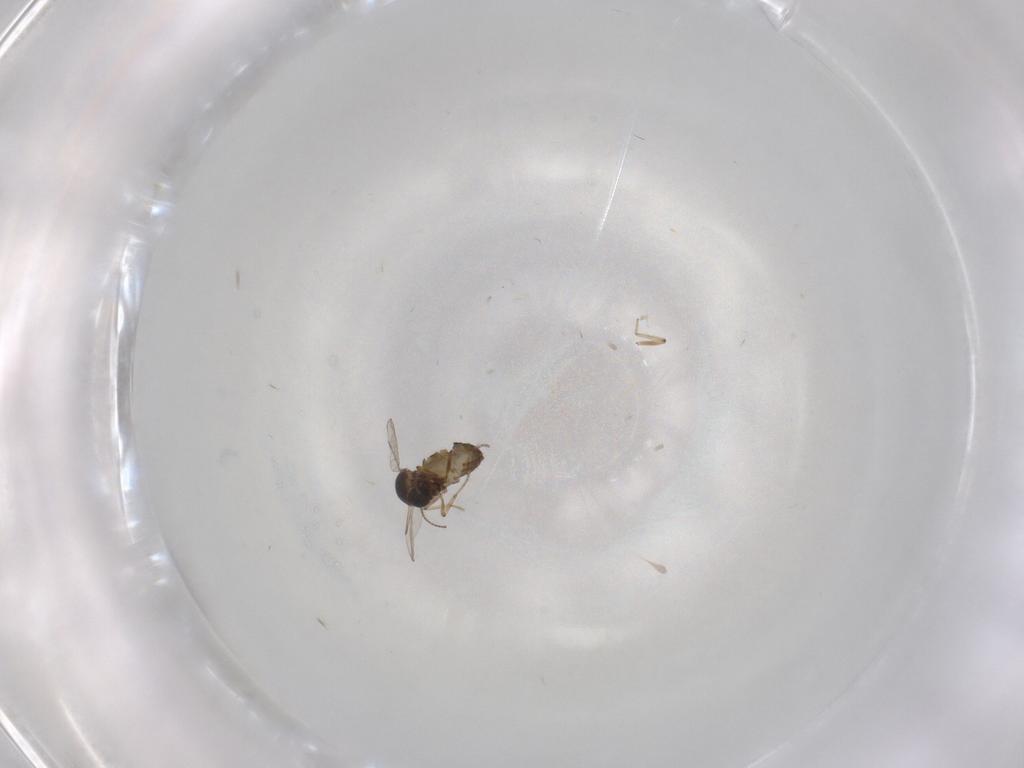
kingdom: Animalia
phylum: Arthropoda
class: Insecta
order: Diptera
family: Ceratopogonidae
